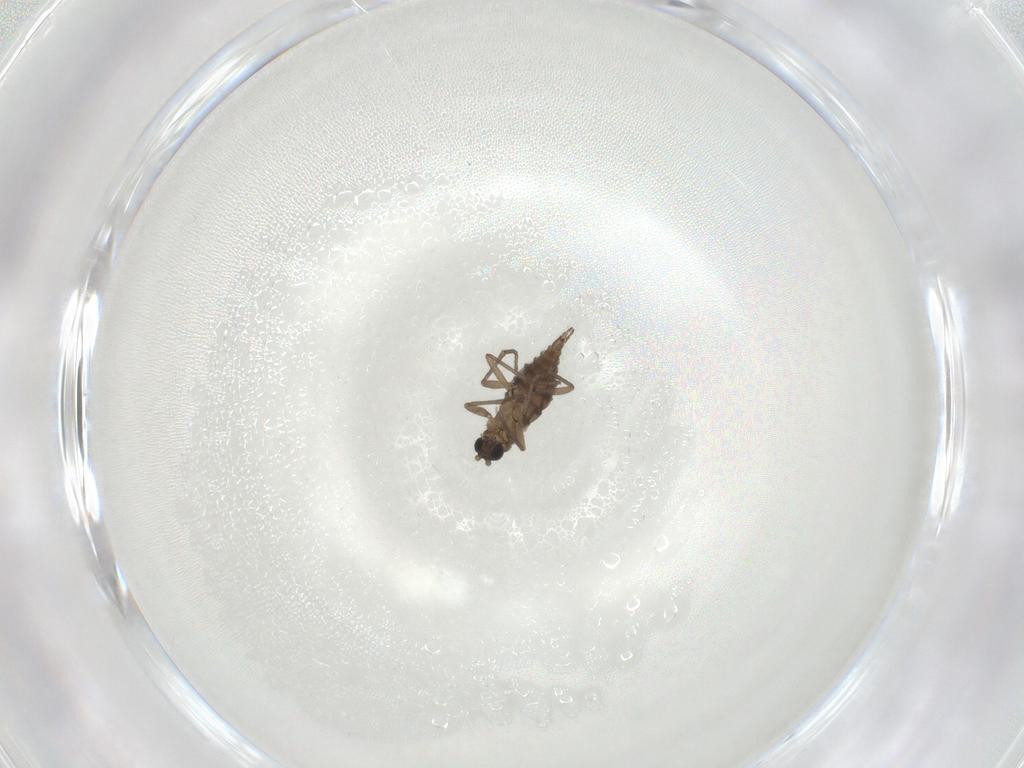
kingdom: Animalia
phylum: Arthropoda
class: Insecta
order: Diptera
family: Sciaridae
